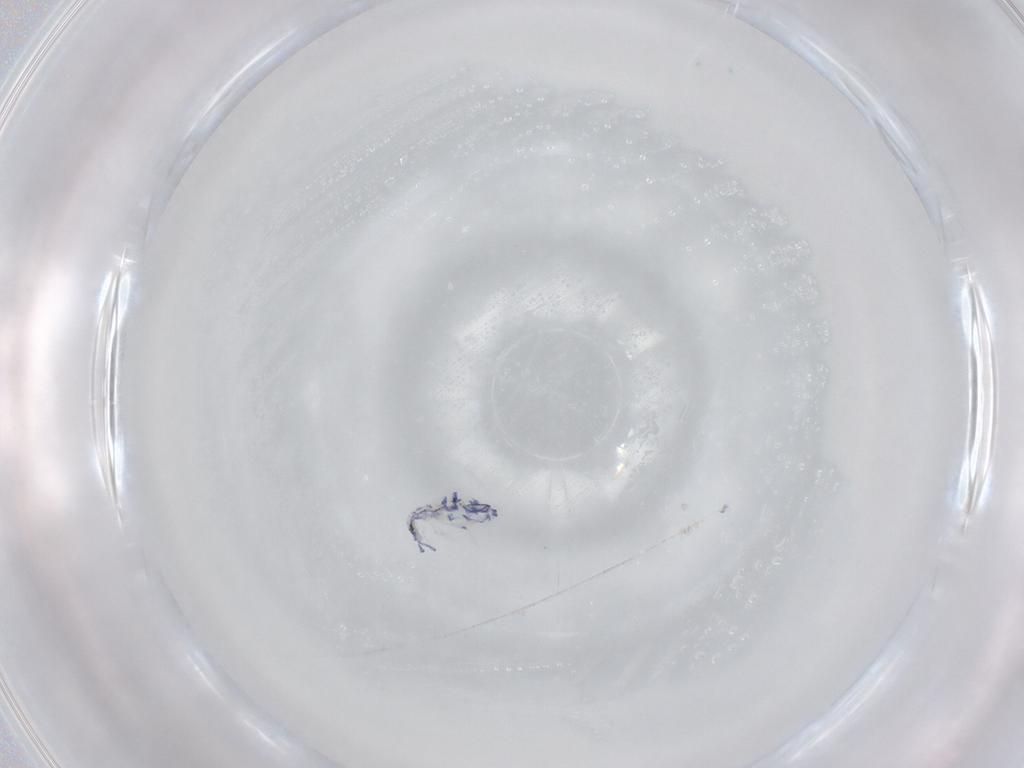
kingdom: Animalia
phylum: Arthropoda
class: Collembola
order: Entomobryomorpha
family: Entomobryidae
